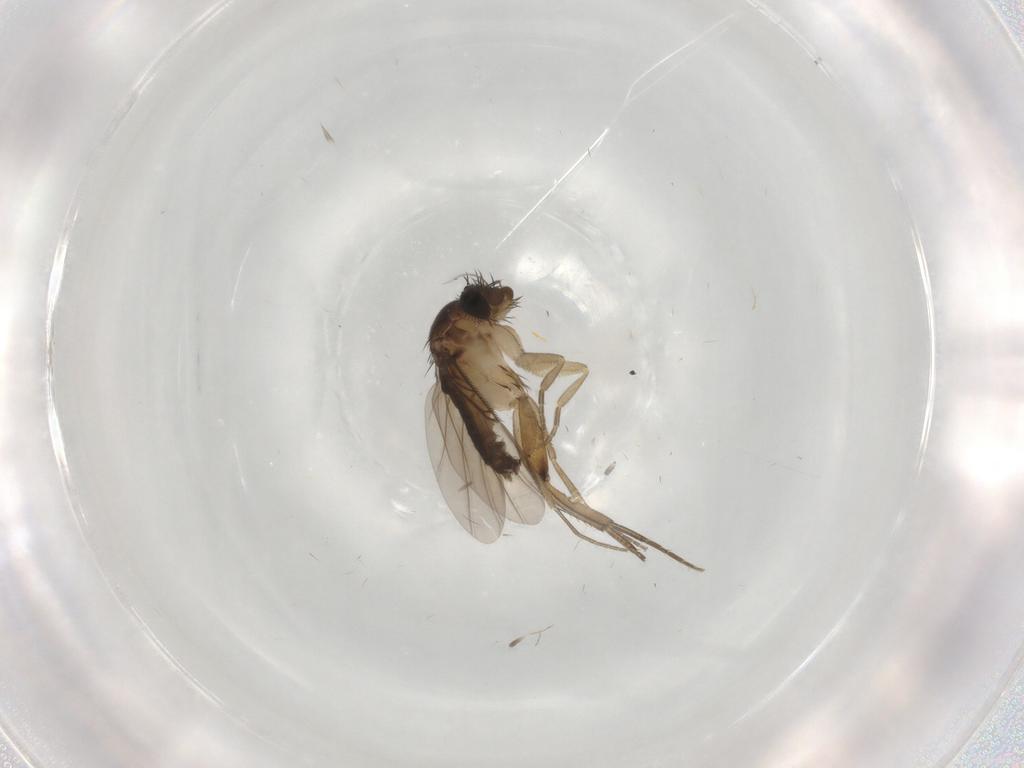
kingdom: Animalia
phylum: Arthropoda
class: Insecta
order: Diptera
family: Phoridae
